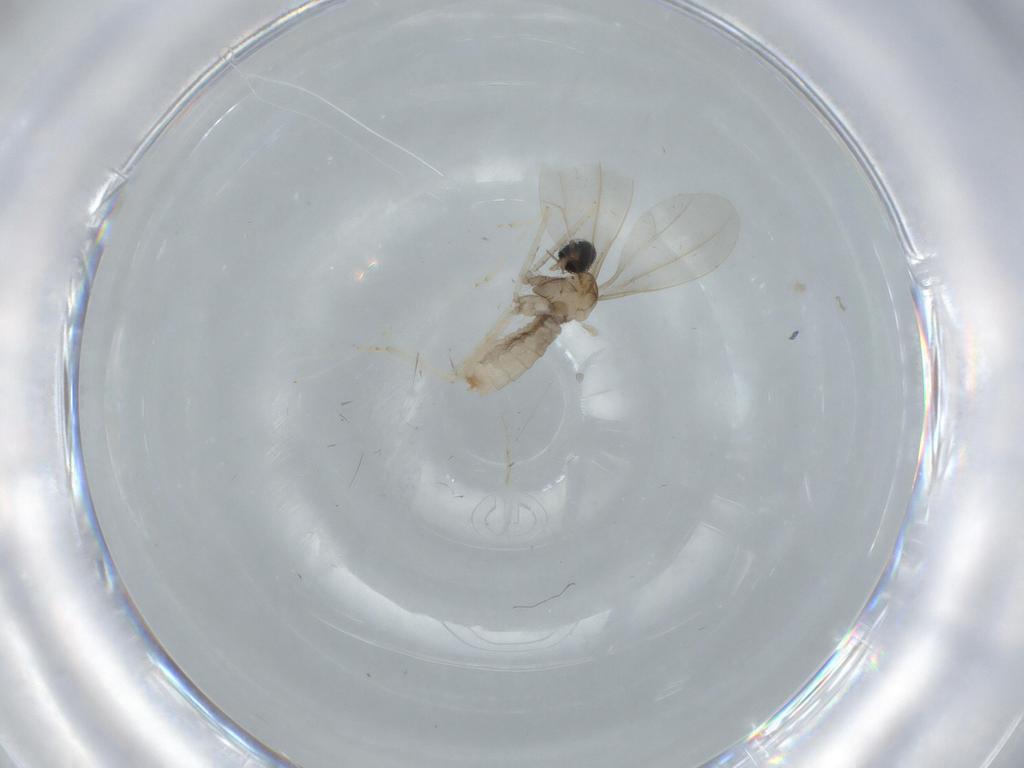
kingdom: Animalia
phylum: Arthropoda
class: Insecta
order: Diptera
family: Cecidomyiidae
